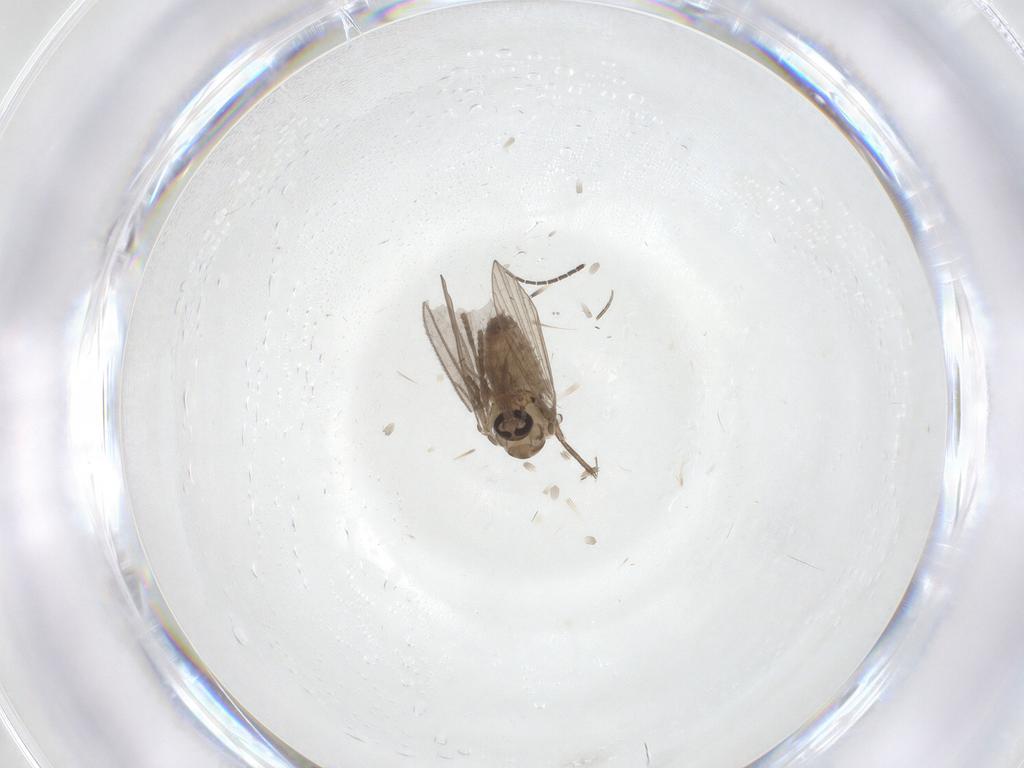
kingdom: Animalia
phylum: Arthropoda
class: Insecta
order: Diptera
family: Psychodidae
